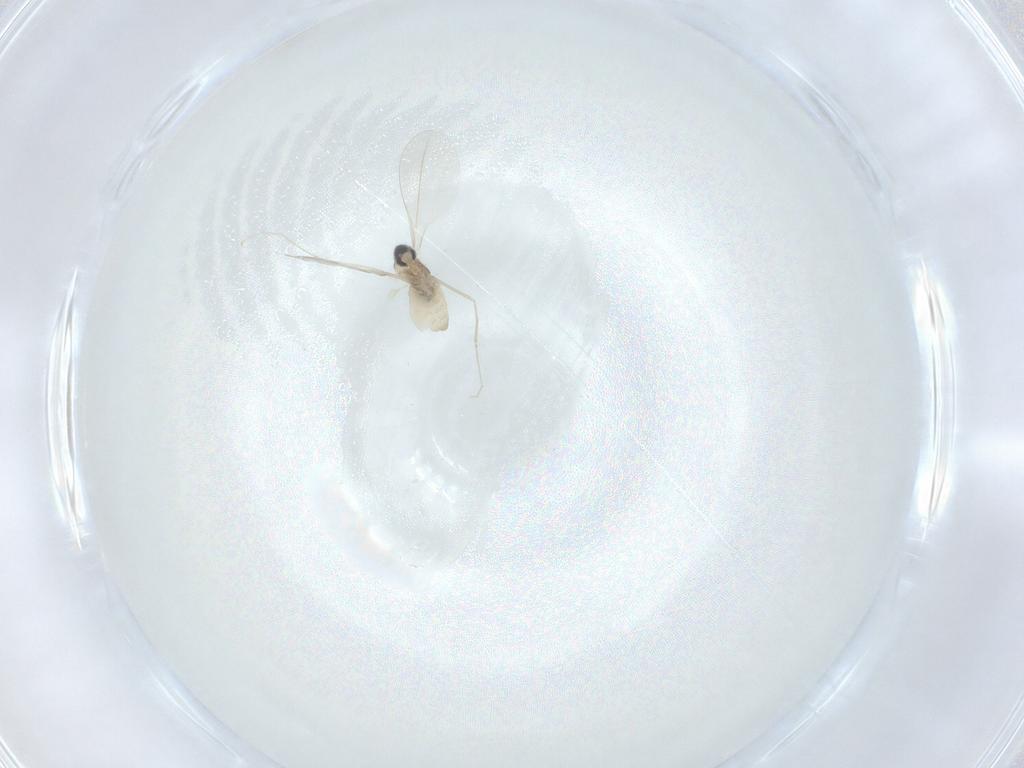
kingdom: Animalia
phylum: Arthropoda
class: Insecta
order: Diptera
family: Cecidomyiidae
